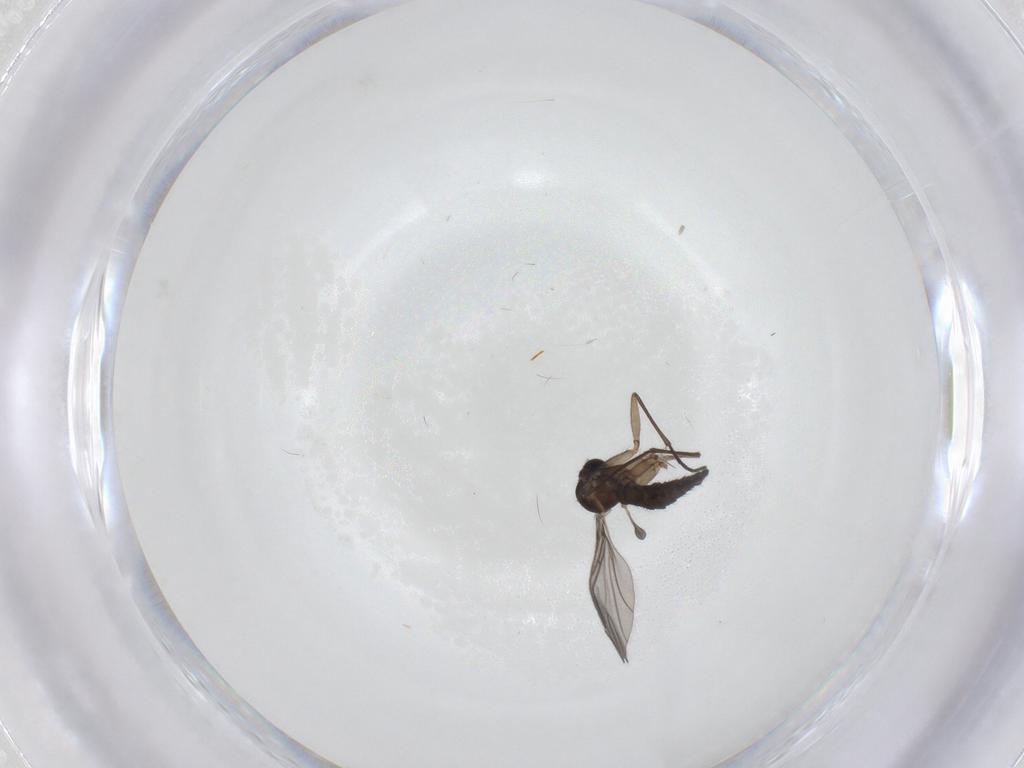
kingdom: Animalia
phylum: Arthropoda
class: Insecta
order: Diptera
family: Sciaridae
